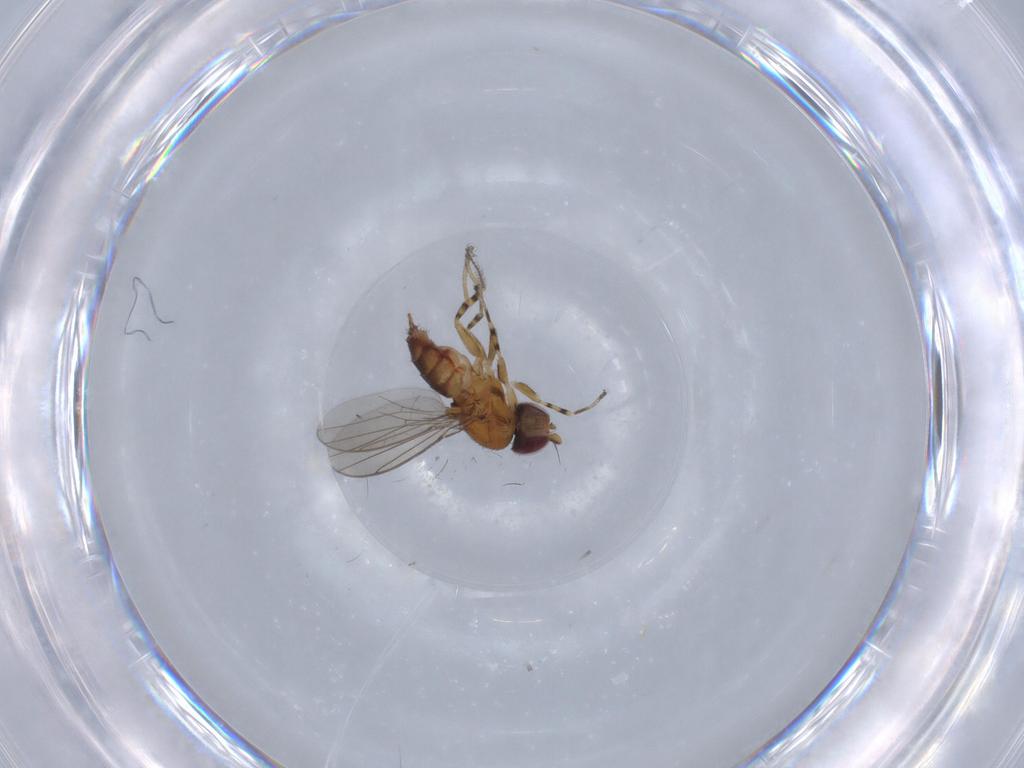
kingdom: Animalia
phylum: Arthropoda
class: Insecta
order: Diptera
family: Chloropidae
